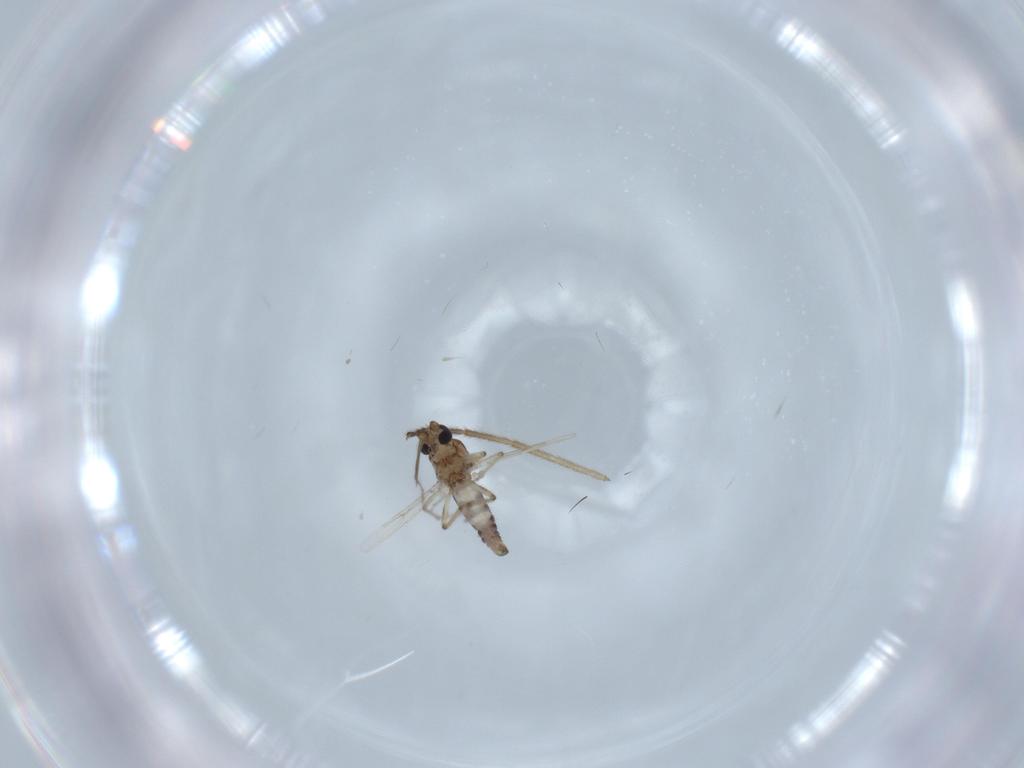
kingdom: Animalia
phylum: Arthropoda
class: Insecta
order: Diptera
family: Ceratopogonidae
